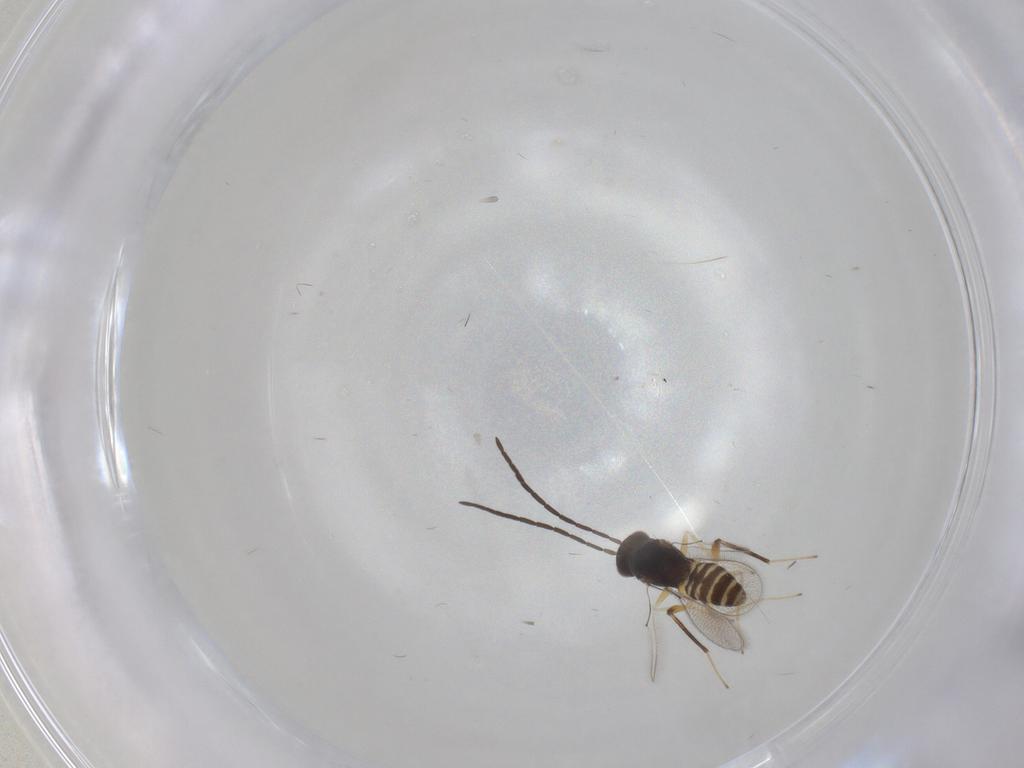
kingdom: Animalia
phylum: Arthropoda
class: Insecta
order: Hymenoptera
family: Mymaridae
